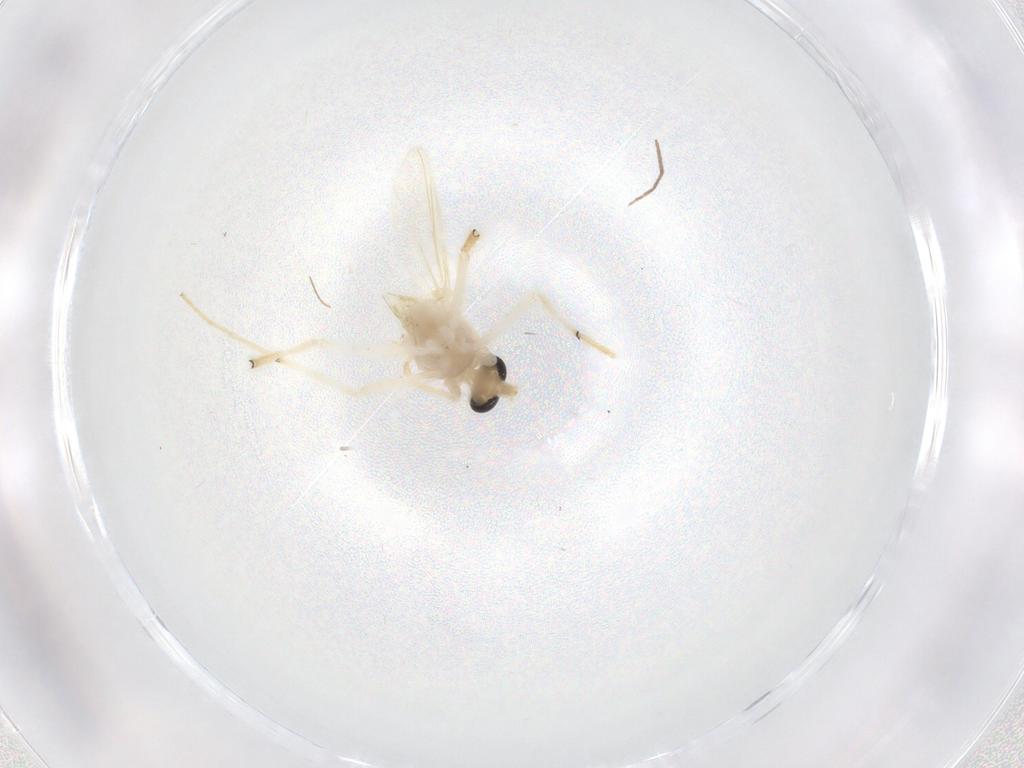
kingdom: Animalia
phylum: Arthropoda
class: Insecta
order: Diptera
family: Chironomidae
